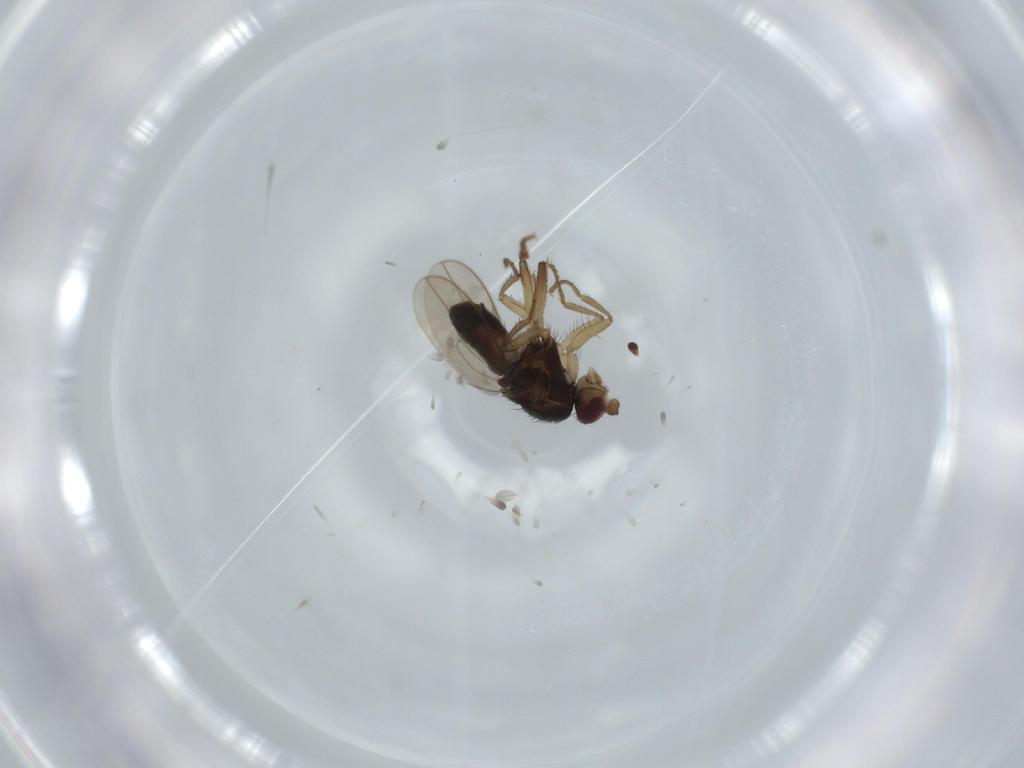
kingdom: Animalia
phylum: Arthropoda
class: Insecta
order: Diptera
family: Sphaeroceridae
